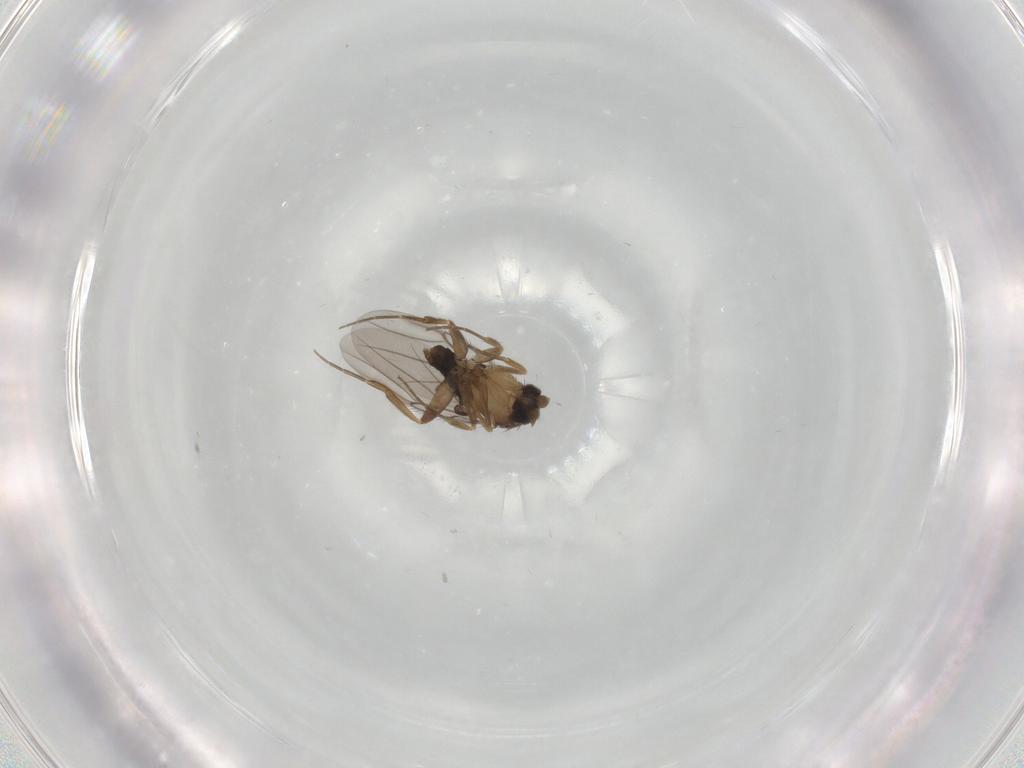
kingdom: Animalia
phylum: Arthropoda
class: Insecta
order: Diptera
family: Phoridae
